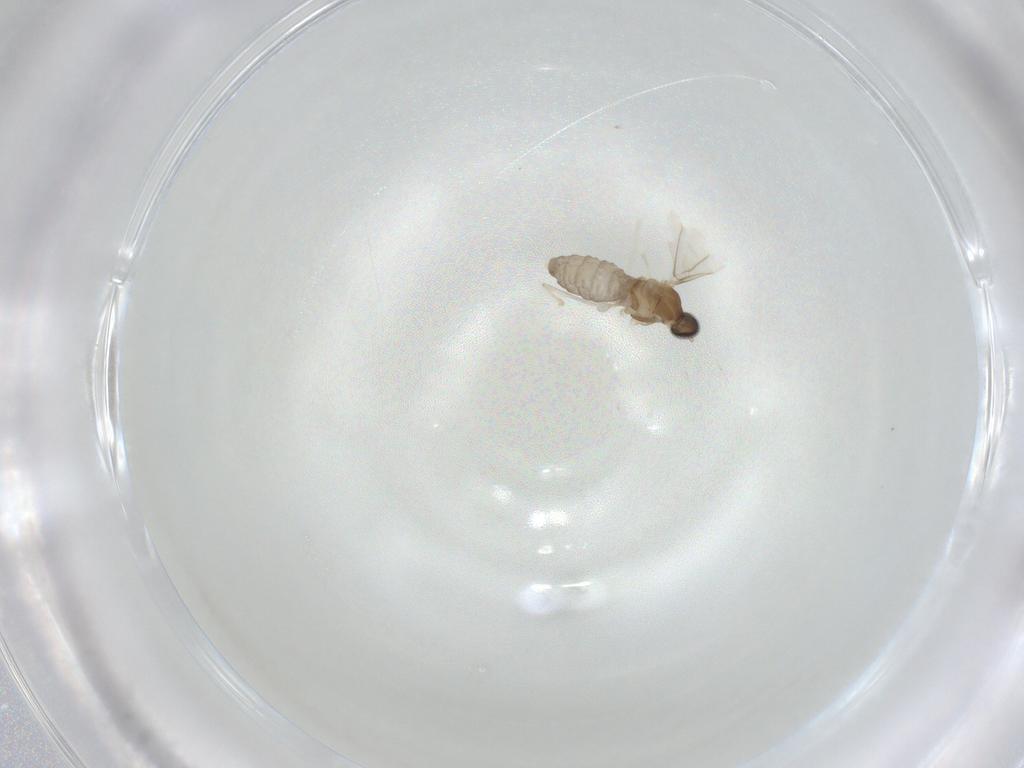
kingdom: Animalia
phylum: Arthropoda
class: Insecta
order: Diptera
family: Cecidomyiidae
